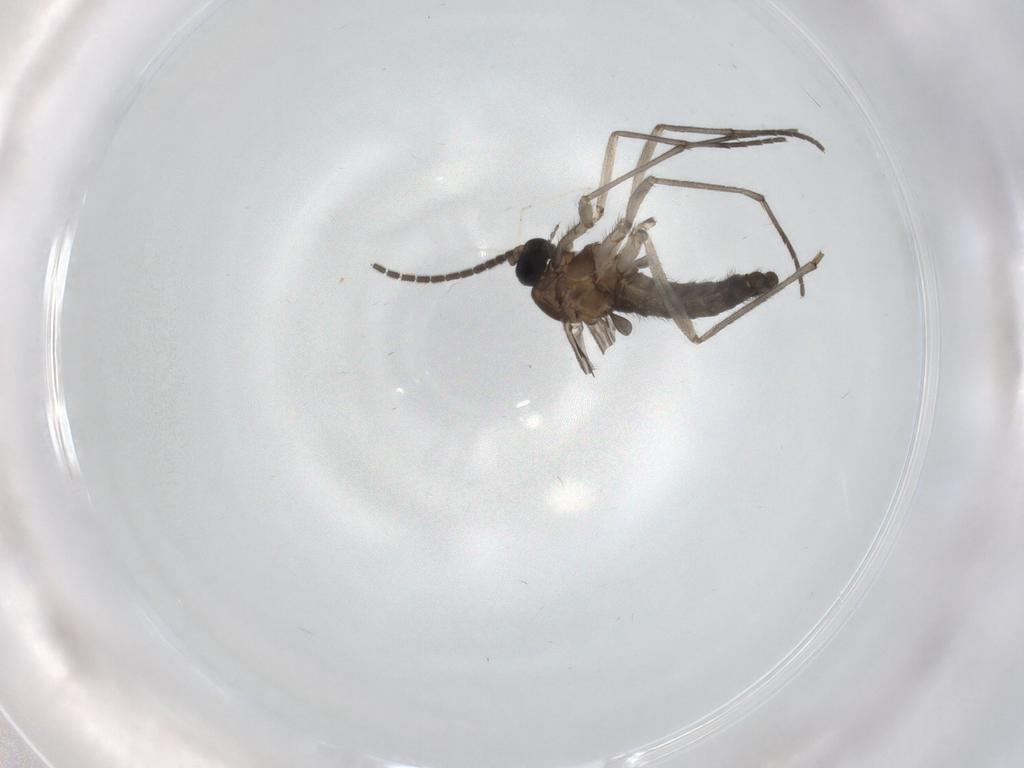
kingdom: Animalia
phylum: Arthropoda
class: Insecta
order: Diptera
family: Sciaridae
